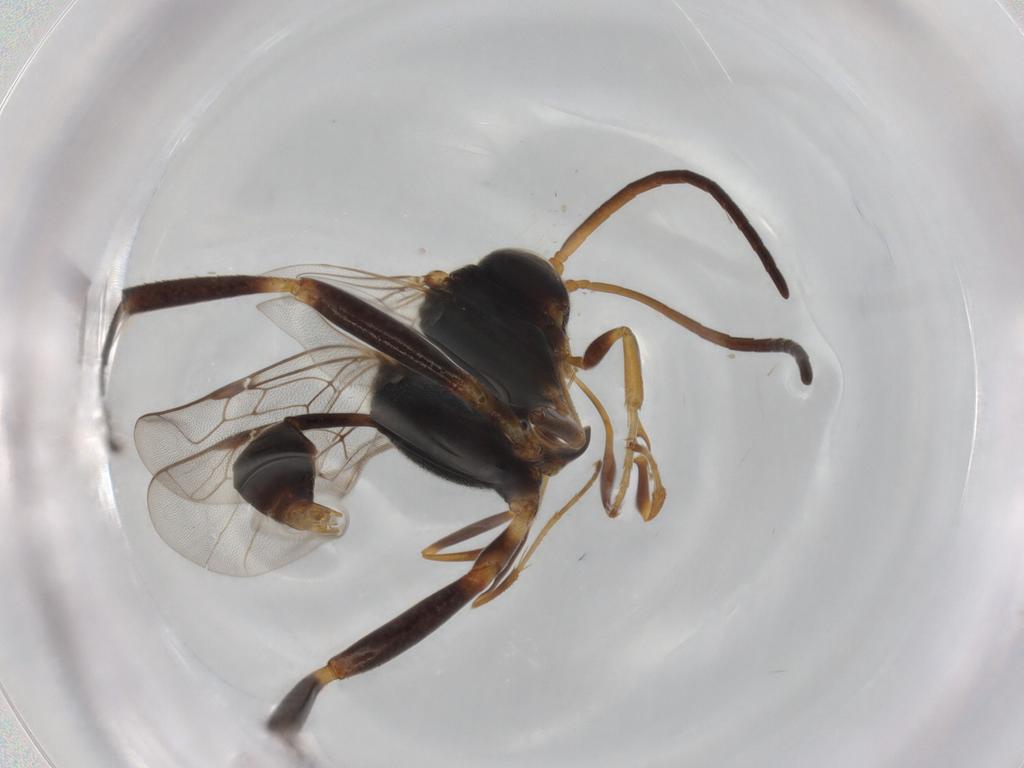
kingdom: Animalia
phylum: Arthropoda
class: Insecta
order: Hymenoptera
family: Evaniidae
